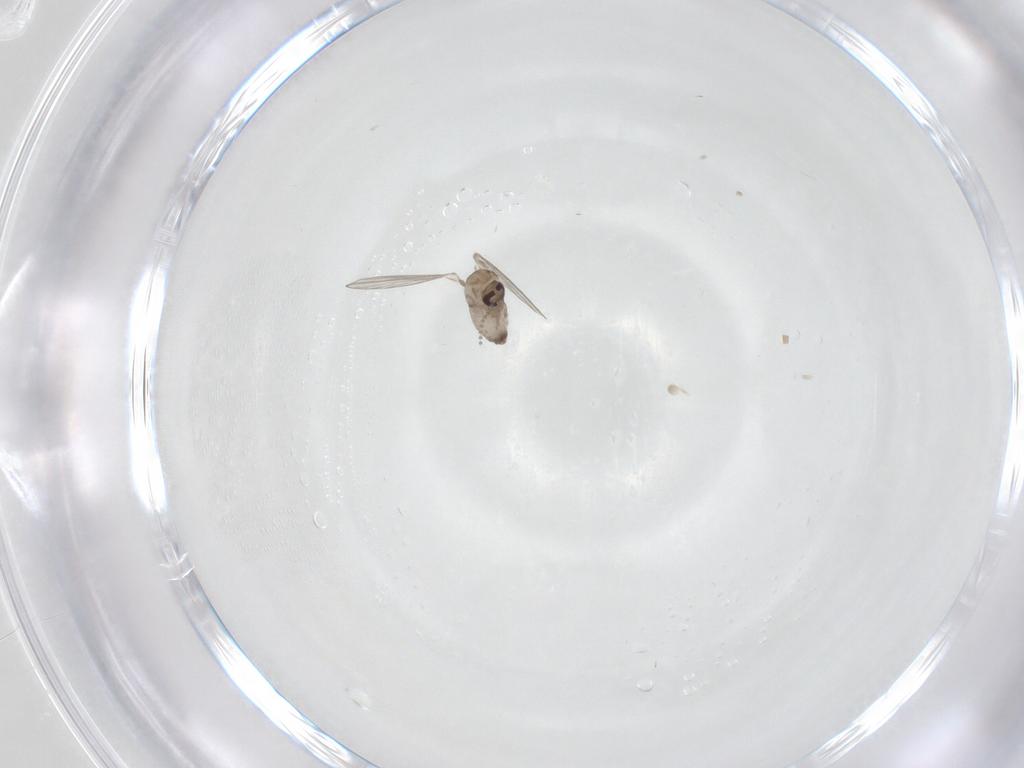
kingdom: Animalia
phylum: Arthropoda
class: Insecta
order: Diptera
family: Psychodidae
